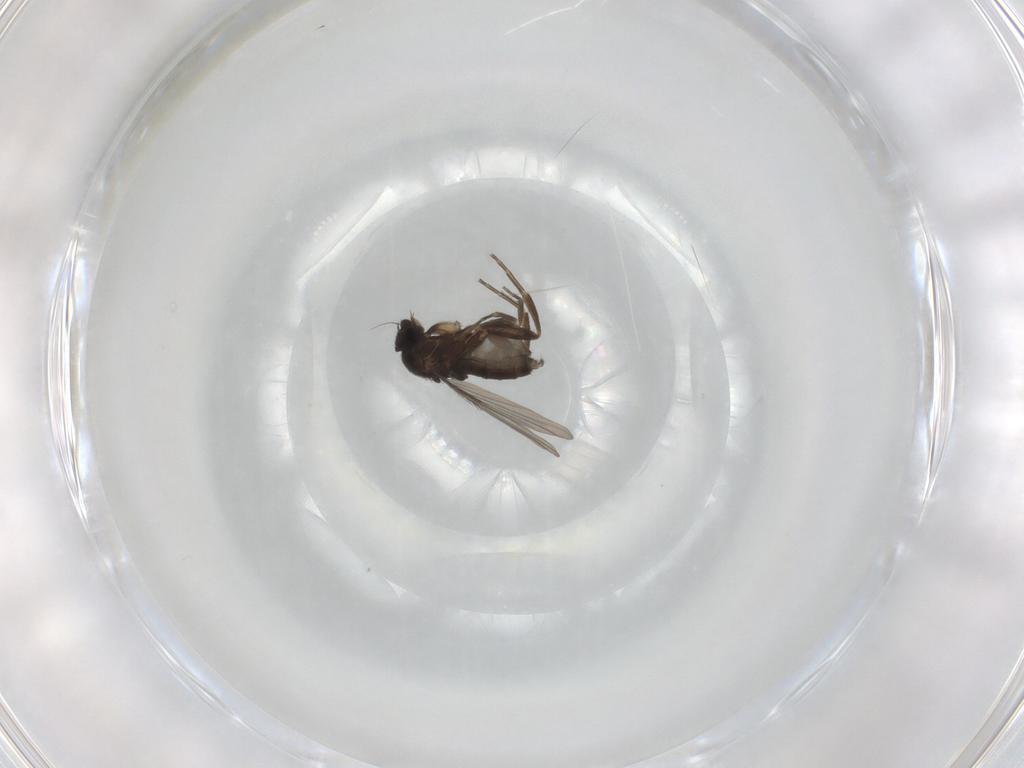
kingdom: Animalia
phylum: Arthropoda
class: Insecta
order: Diptera
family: Phoridae
